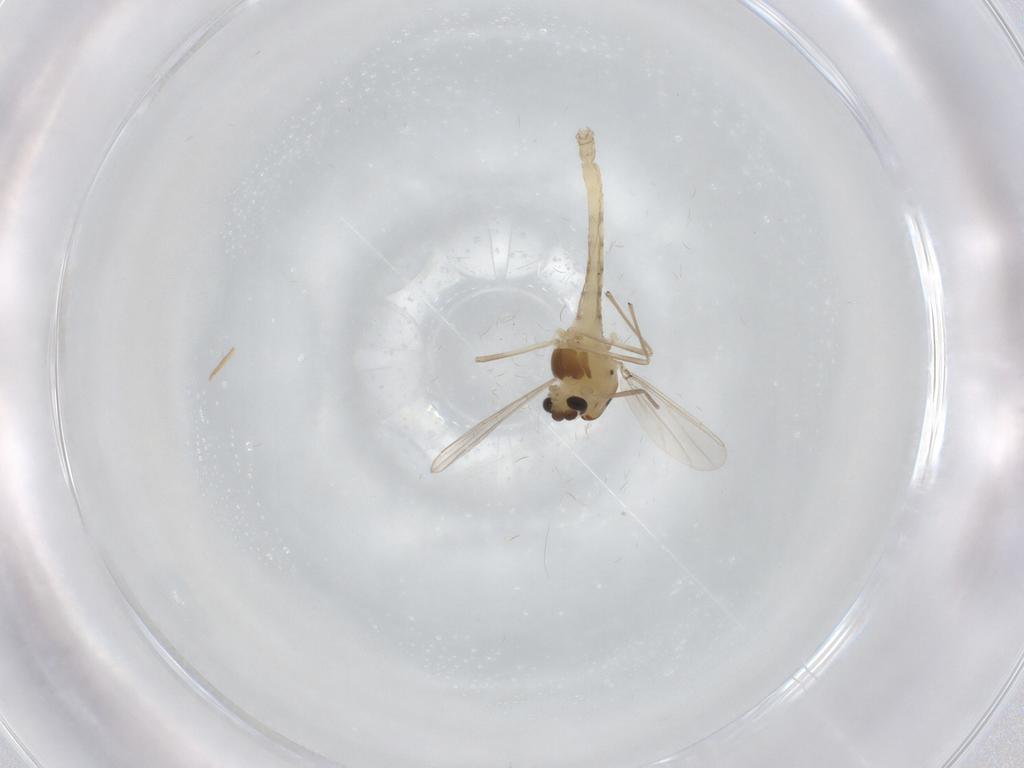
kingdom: Animalia
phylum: Arthropoda
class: Insecta
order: Diptera
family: Chironomidae
